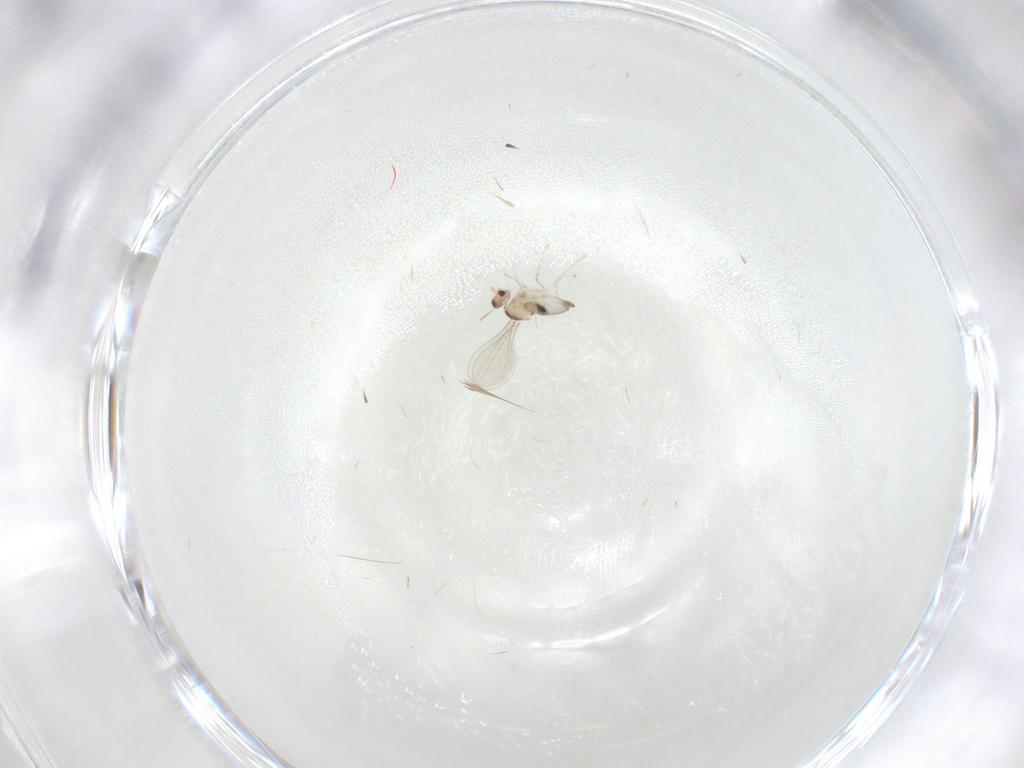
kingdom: Animalia
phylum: Arthropoda
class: Insecta
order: Diptera
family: Cecidomyiidae
